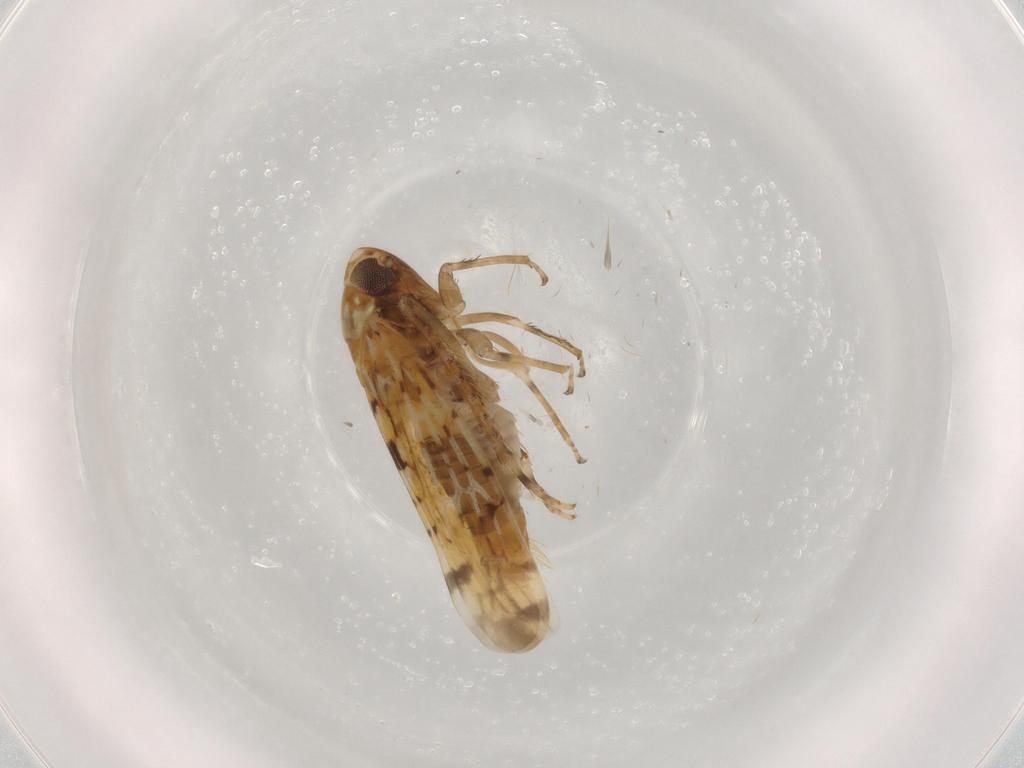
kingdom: Animalia
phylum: Arthropoda
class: Insecta
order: Hemiptera
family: Cicadellidae
